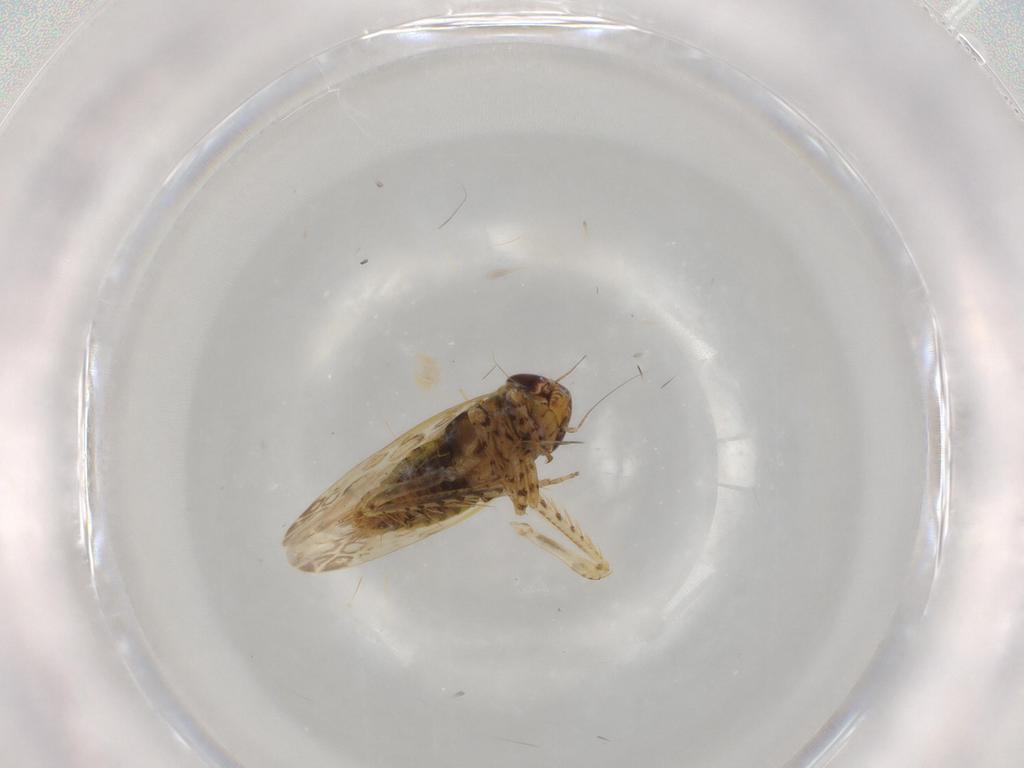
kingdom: Animalia
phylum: Arthropoda
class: Insecta
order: Hemiptera
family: Cicadellidae
